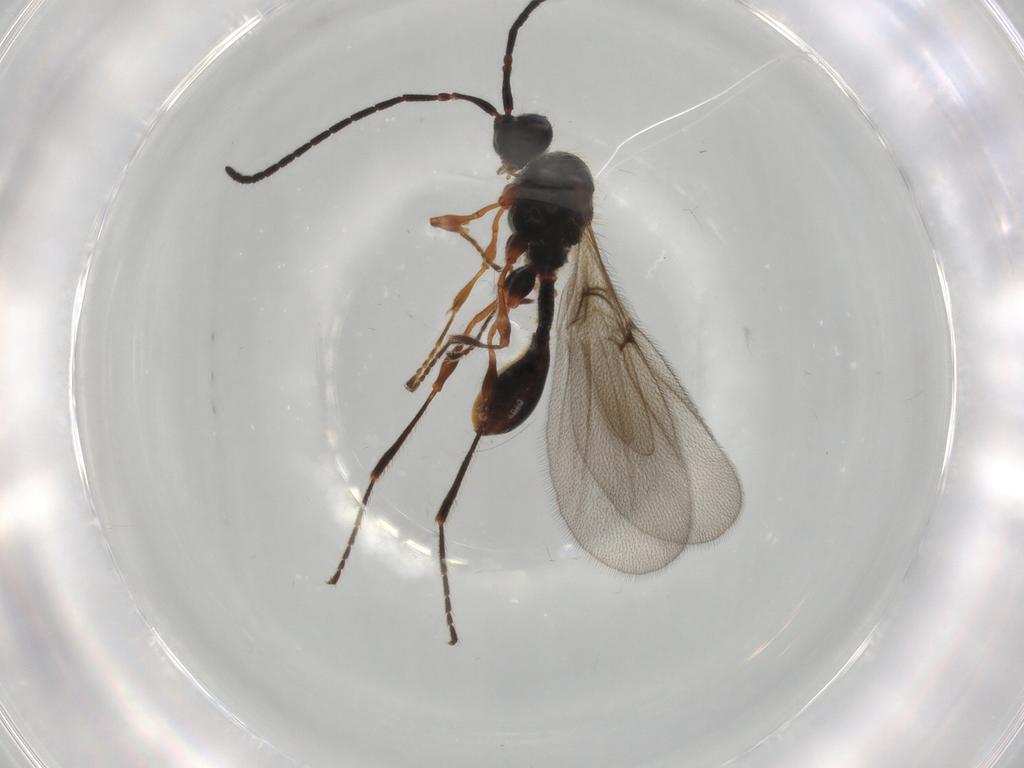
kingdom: Animalia
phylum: Arthropoda
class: Insecta
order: Hymenoptera
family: Diapriidae
